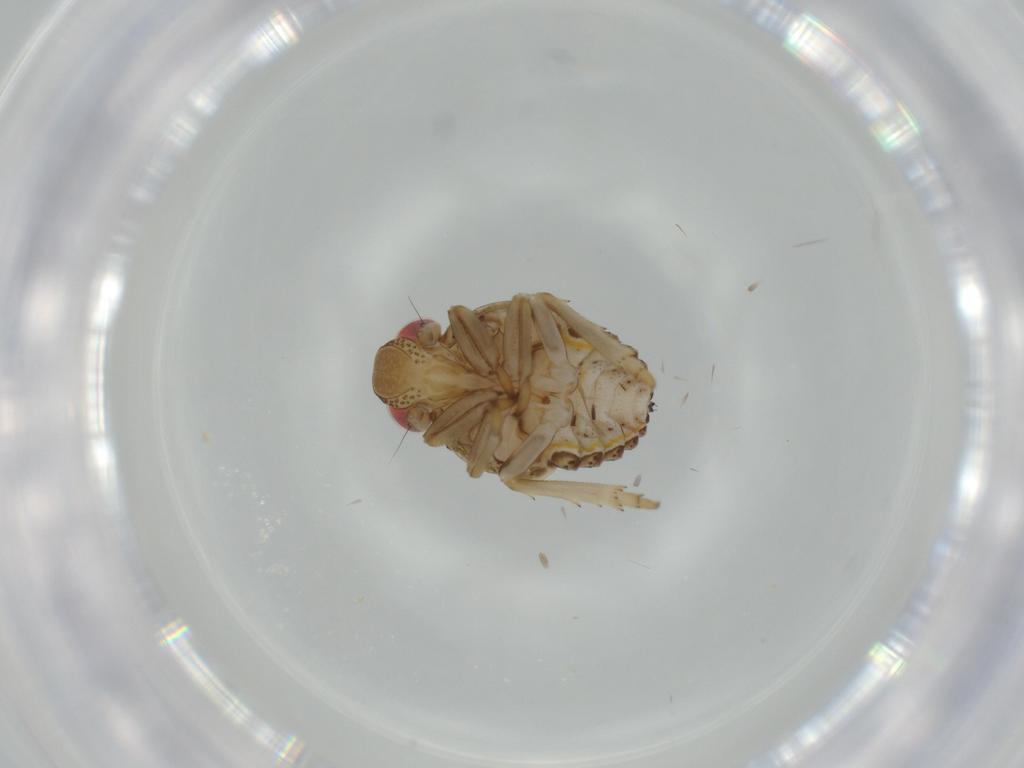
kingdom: Animalia
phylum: Arthropoda
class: Insecta
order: Hemiptera
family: Issidae
